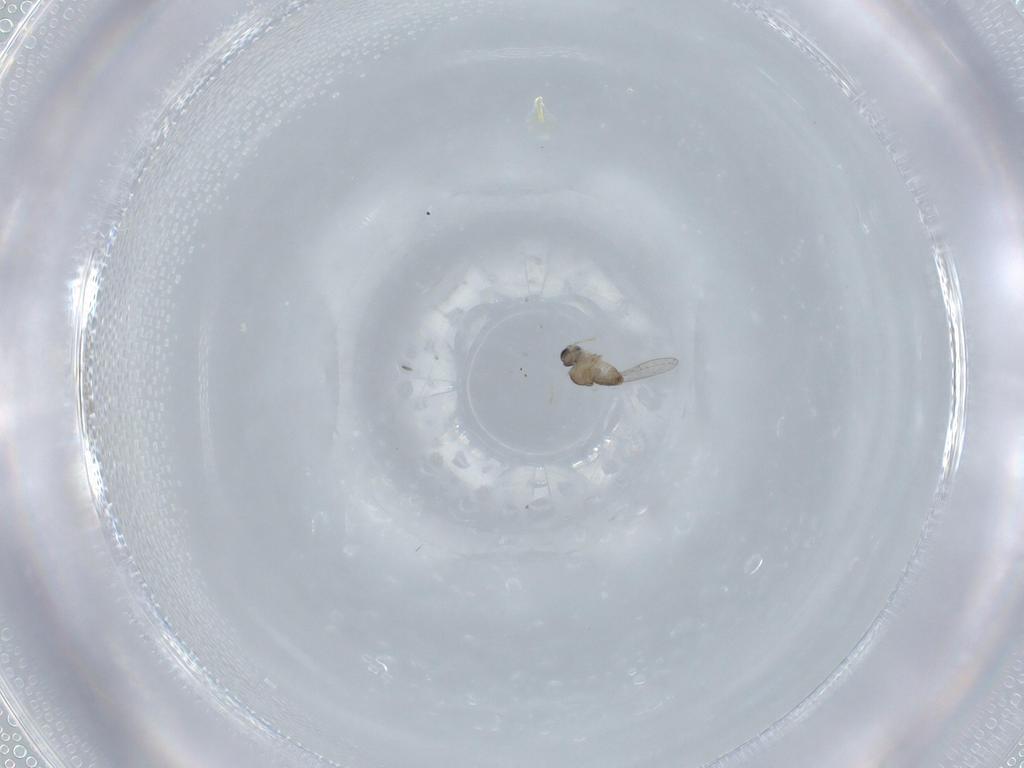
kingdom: Animalia
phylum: Arthropoda
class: Insecta
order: Diptera
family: Cecidomyiidae
